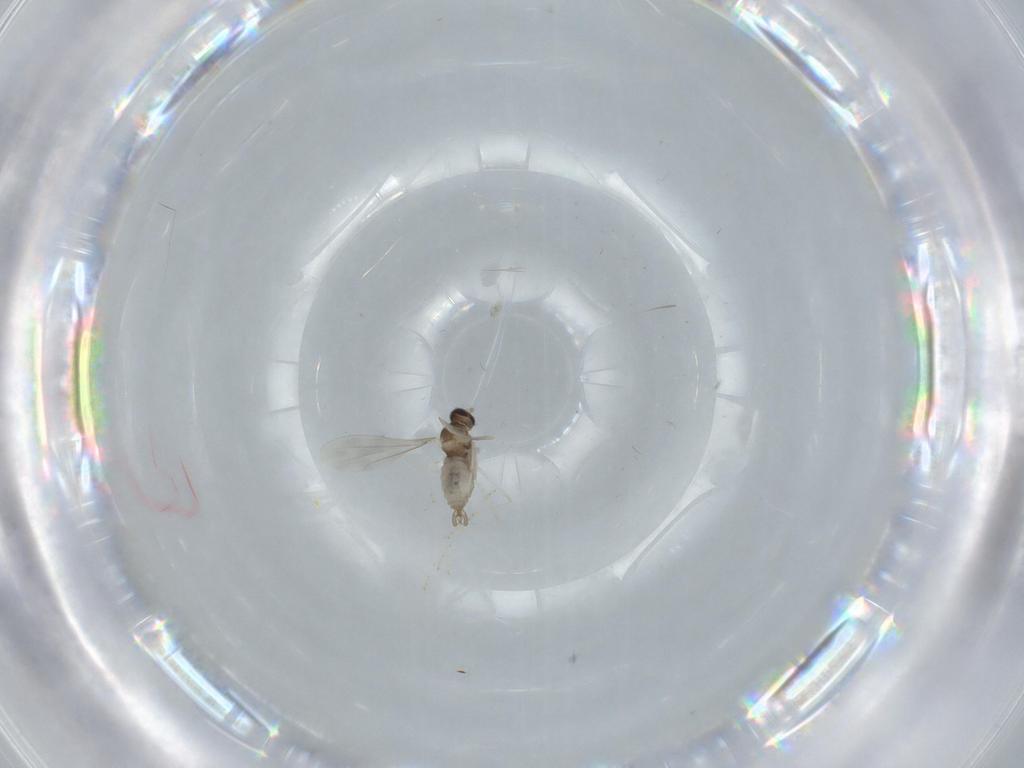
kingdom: Animalia
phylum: Arthropoda
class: Insecta
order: Diptera
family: Cecidomyiidae
